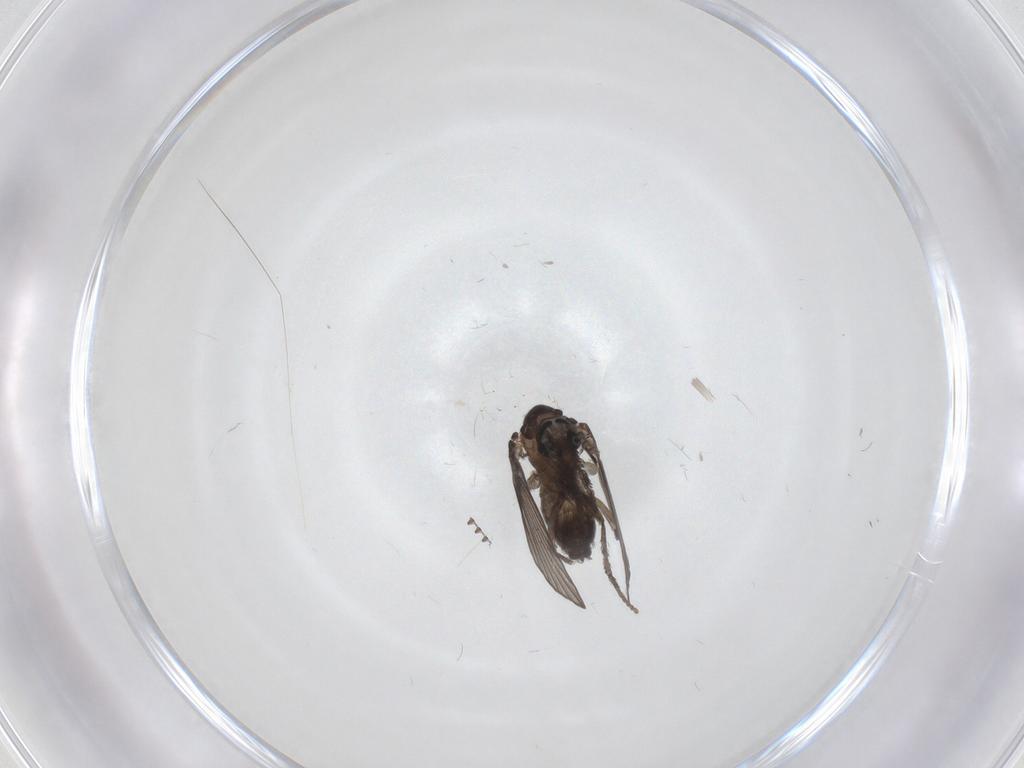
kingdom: Animalia
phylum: Arthropoda
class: Insecta
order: Diptera
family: Psychodidae
